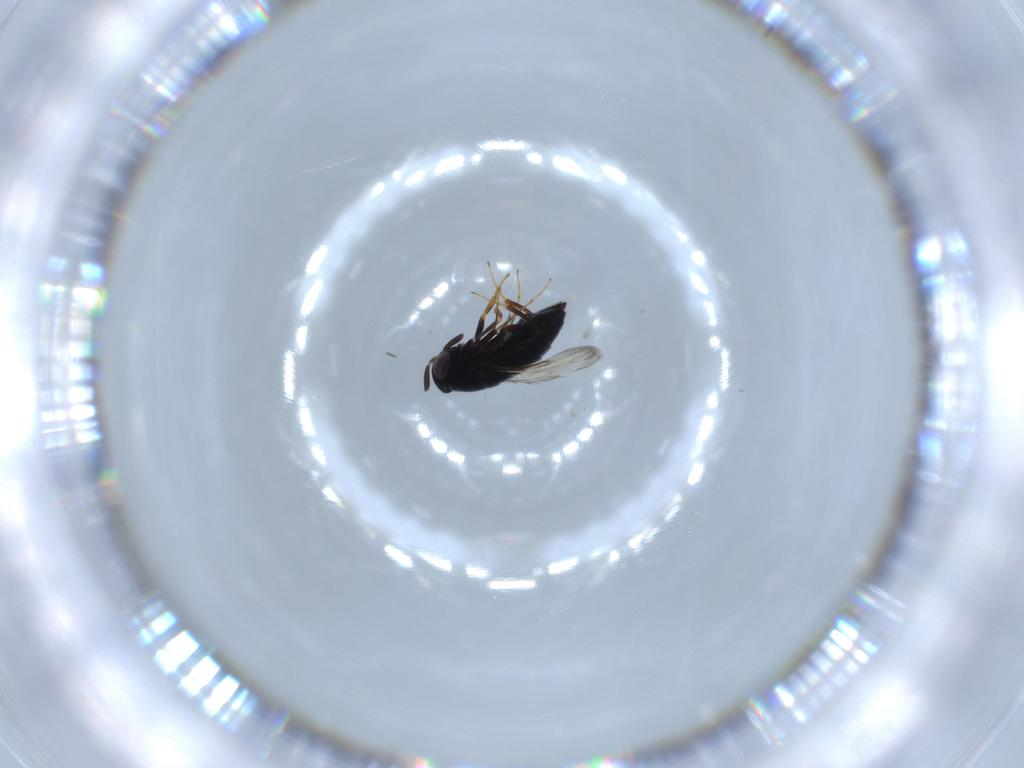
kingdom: Animalia
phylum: Arthropoda
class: Insecta
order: Hymenoptera
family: Signiphoridae
